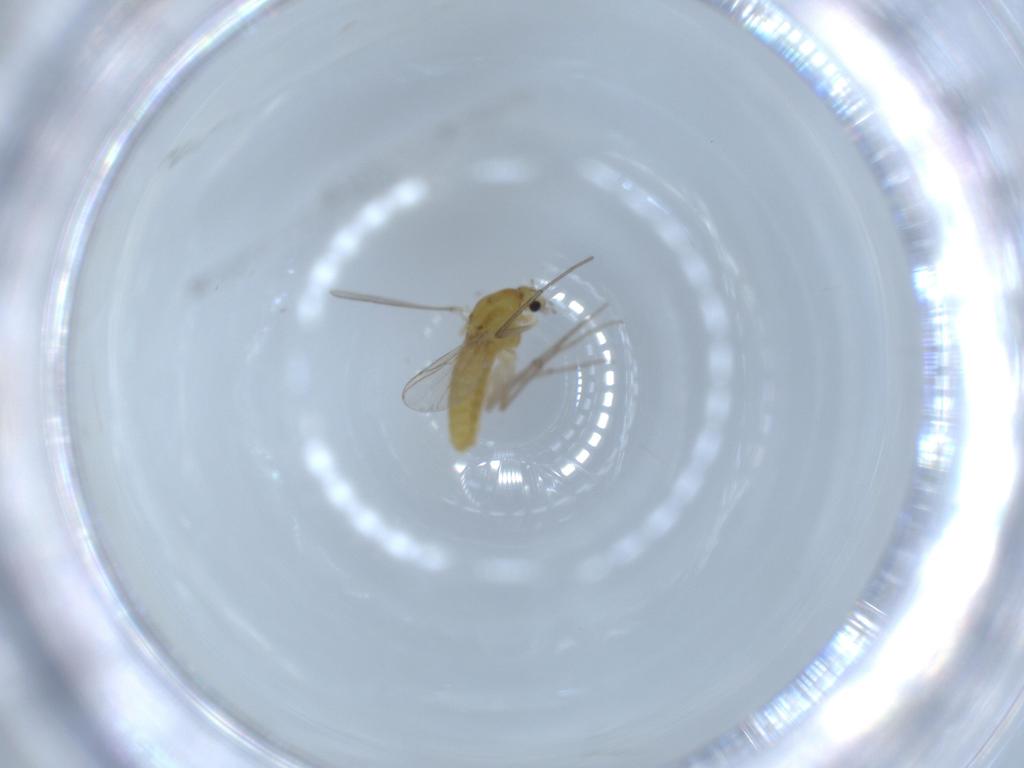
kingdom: Animalia
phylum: Arthropoda
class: Insecta
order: Diptera
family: Chironomidae
